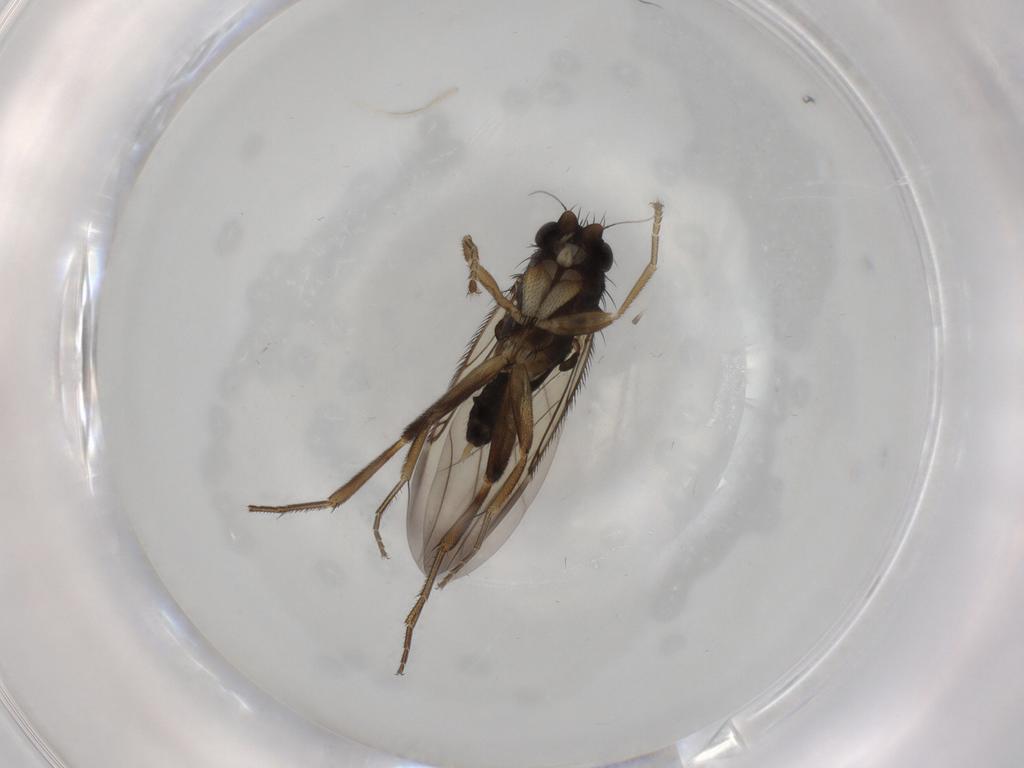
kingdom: Animalia
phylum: Arthropoda
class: Insecta
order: Diptera
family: Phoridae
